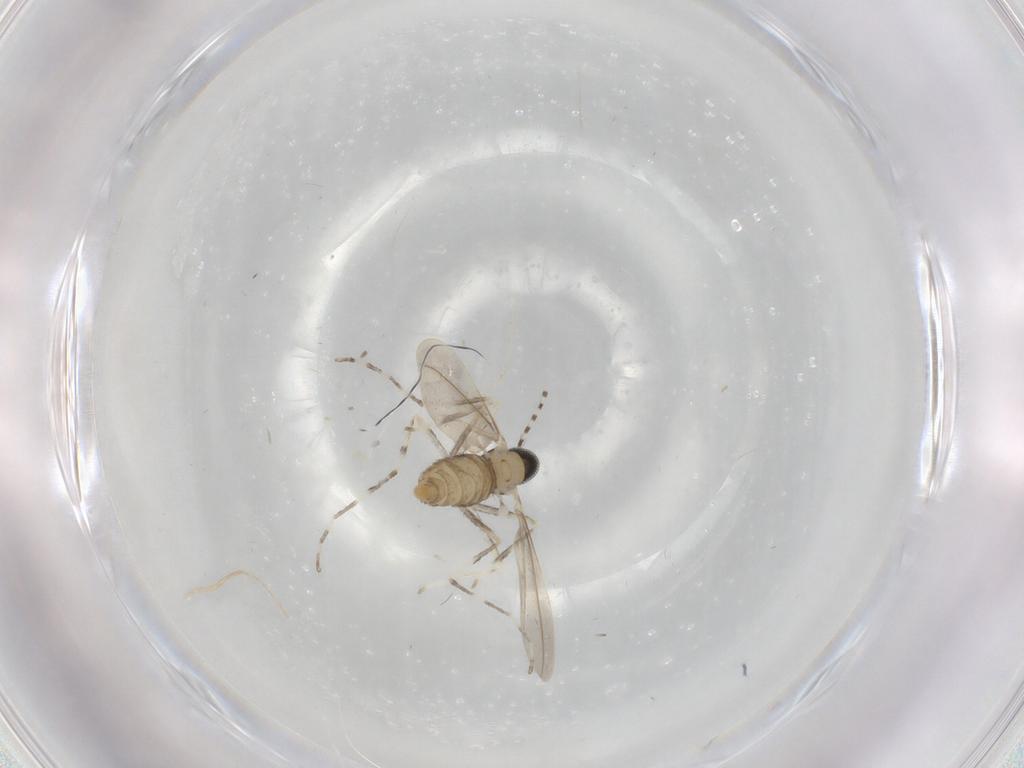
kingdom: Animalia
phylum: Arthropoda
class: Insecta
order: Diptera
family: Cecidomyiidae
